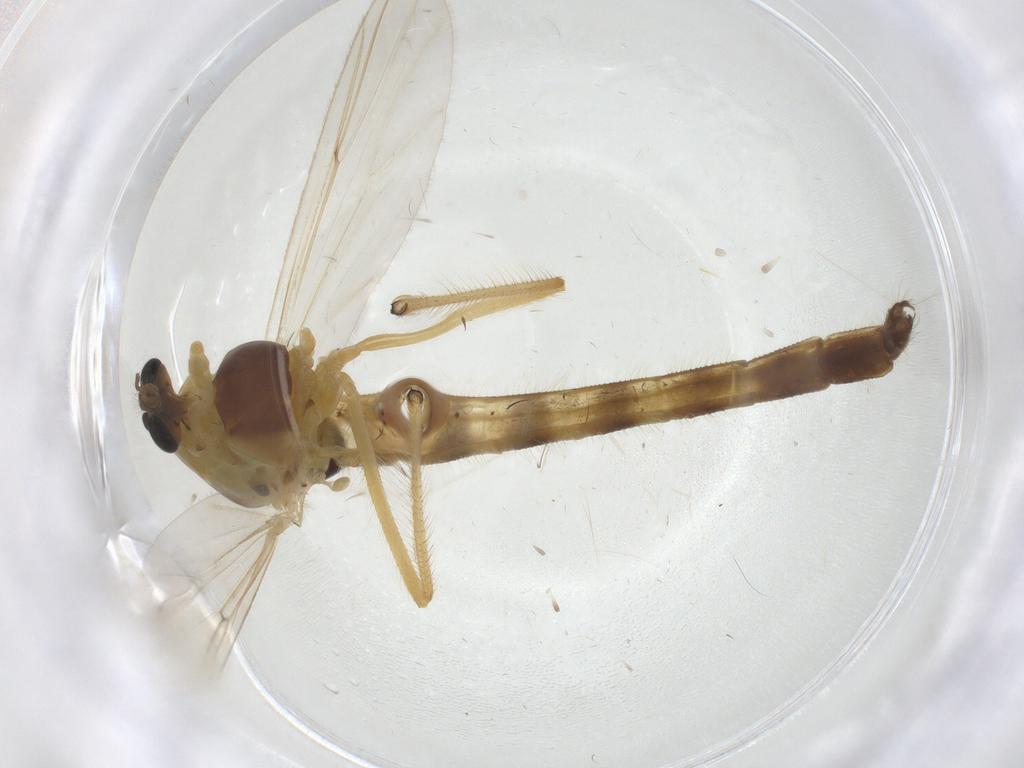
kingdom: Animalia
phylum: Arthropoda
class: Insecta
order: Diptera
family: Chironomidae
